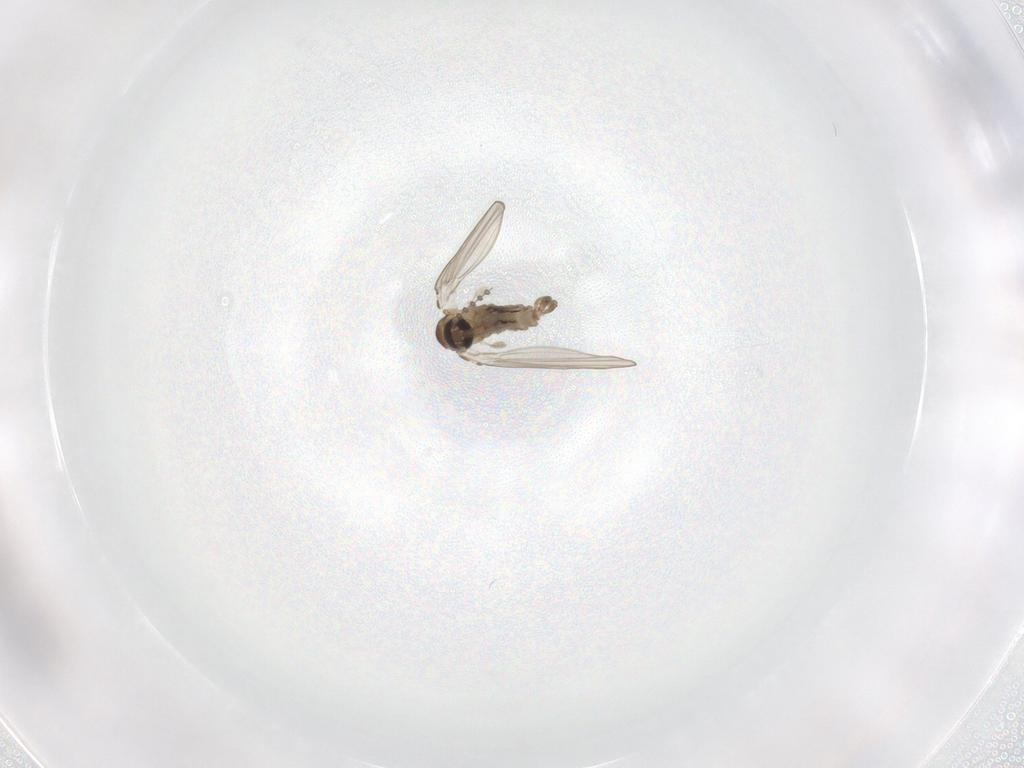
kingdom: Animalia
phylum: Arthropoda
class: Insecta
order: Diptera
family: Psychodidae
